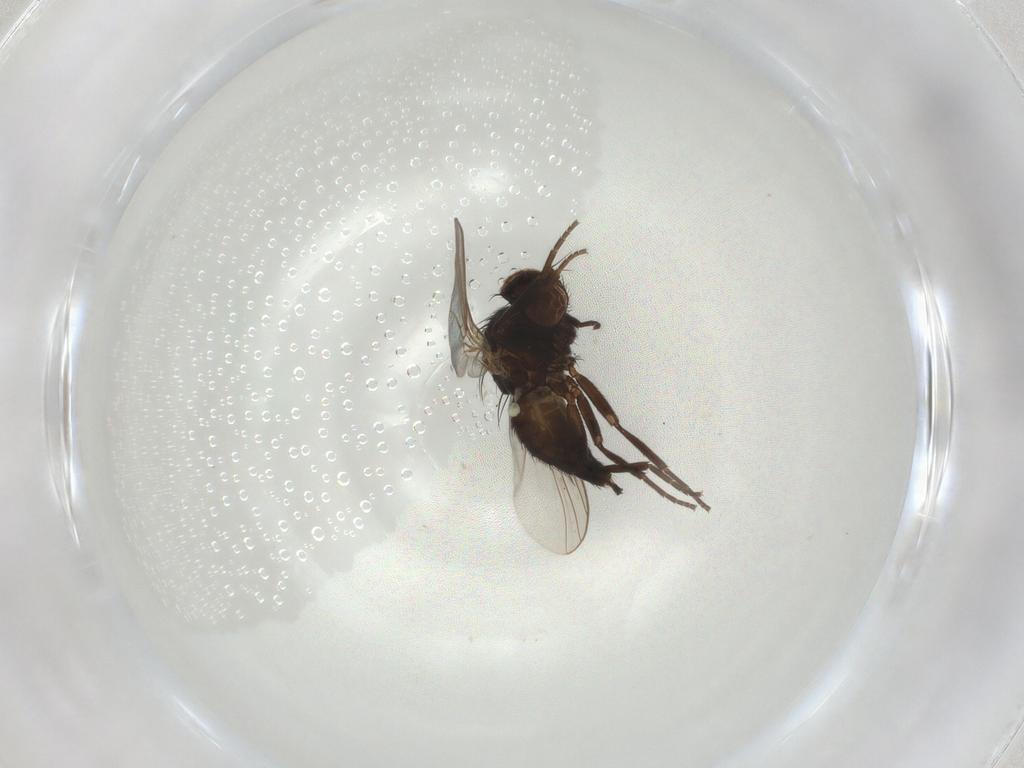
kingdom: Animalia
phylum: Arthropoda
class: Insecta
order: Diptera
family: Agromyzidae
